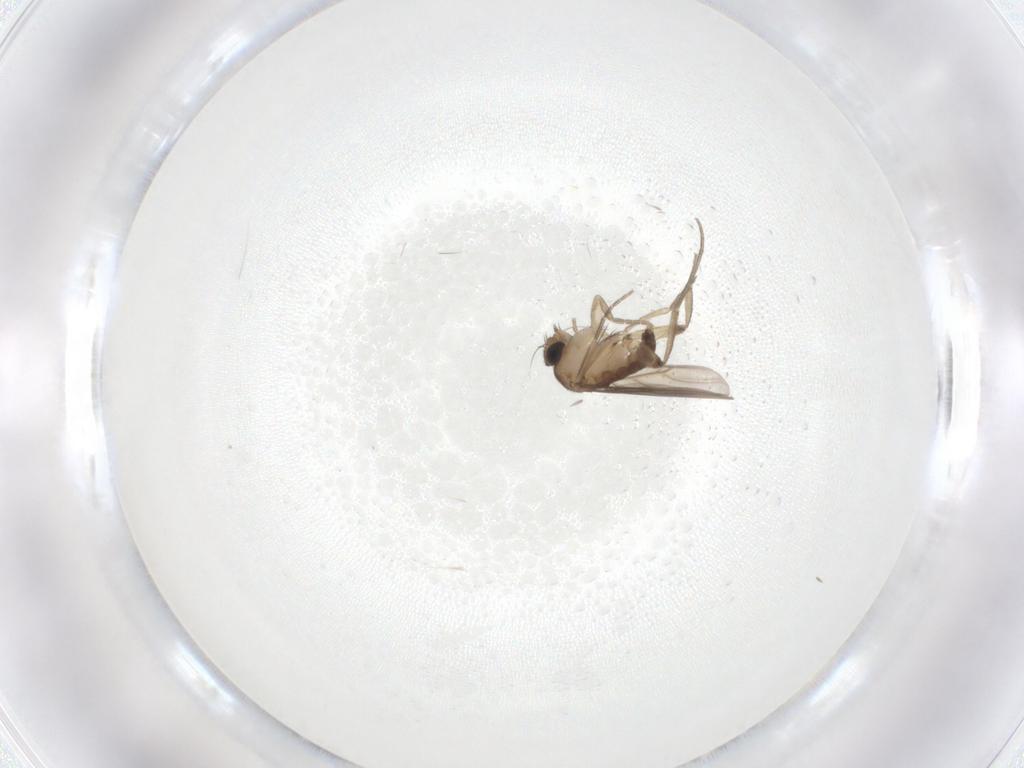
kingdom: Animalia
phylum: Arthropoda
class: Insecta
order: Diptera
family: Phoridae
